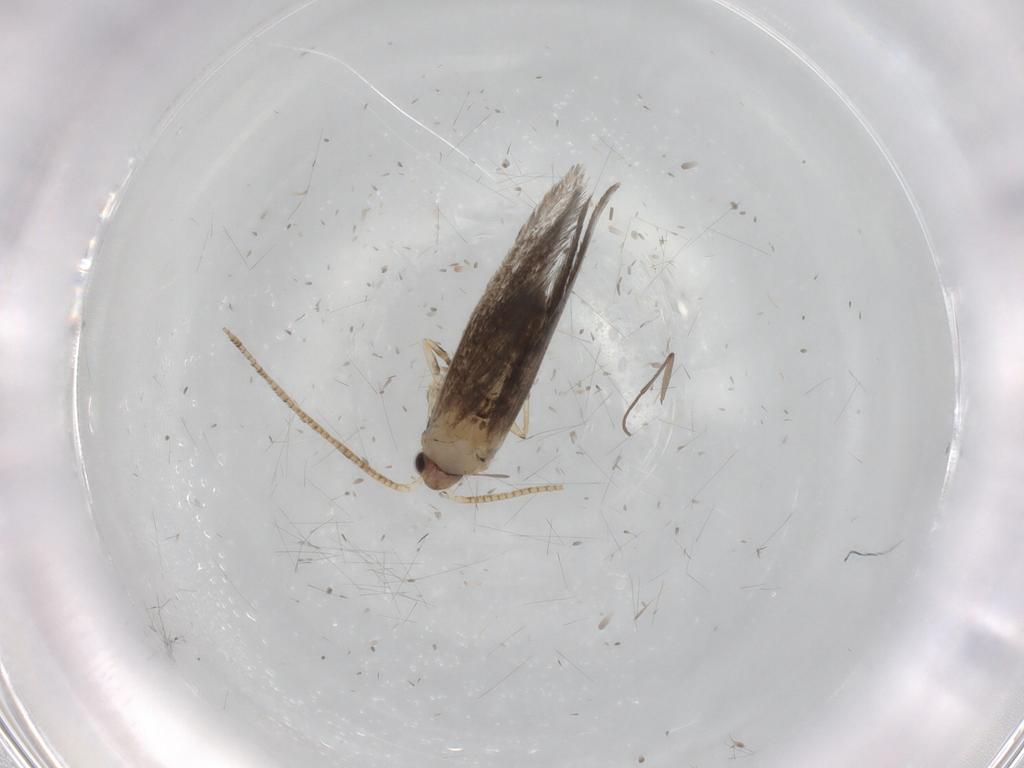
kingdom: Animalia
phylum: Arthropoda
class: Insecta
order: Lepidoptera
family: Tineidae
